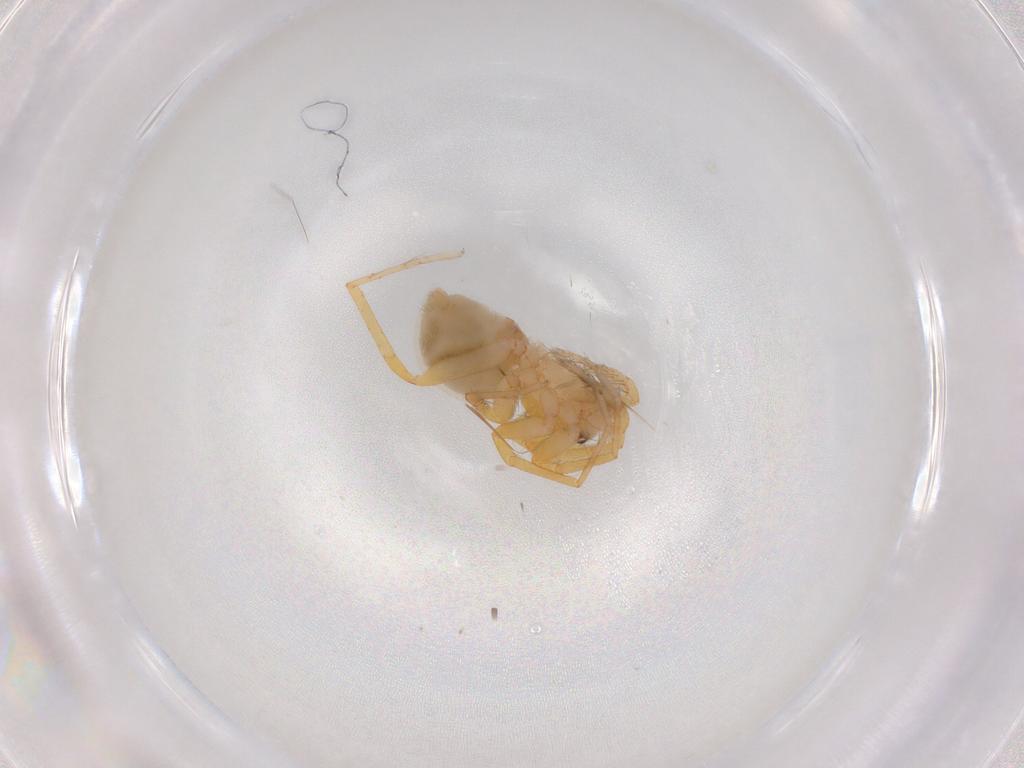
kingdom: Animalia
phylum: Arthropoda
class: Arachnida
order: Araneae
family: Oonopidae
